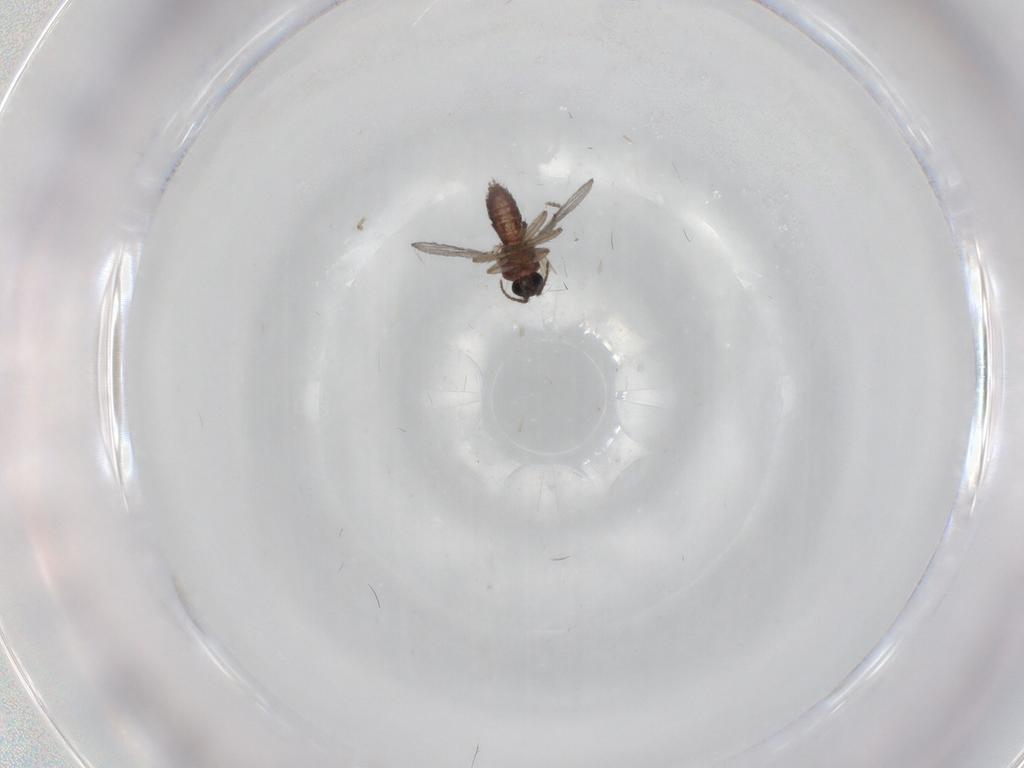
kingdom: Animalia
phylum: Arthropoda
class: Insecta
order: Diptera
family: Ceratopogonidae
